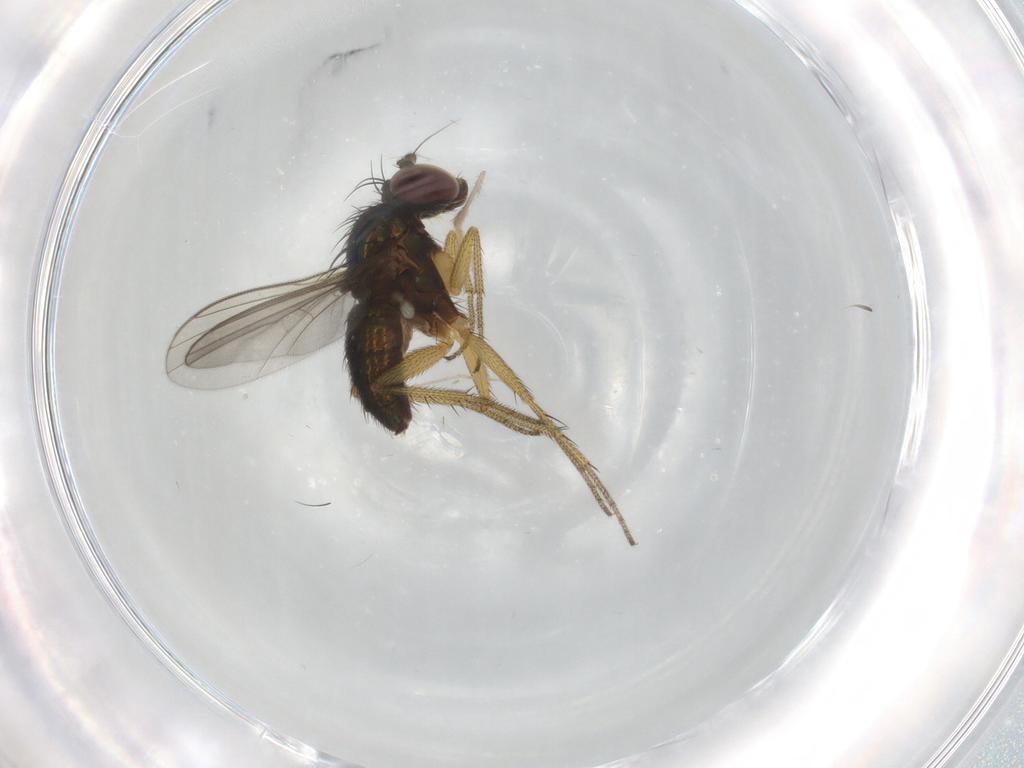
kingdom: Animalia
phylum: Arthropoda
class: Insecta
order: Diptera
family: Dolichopodidae
